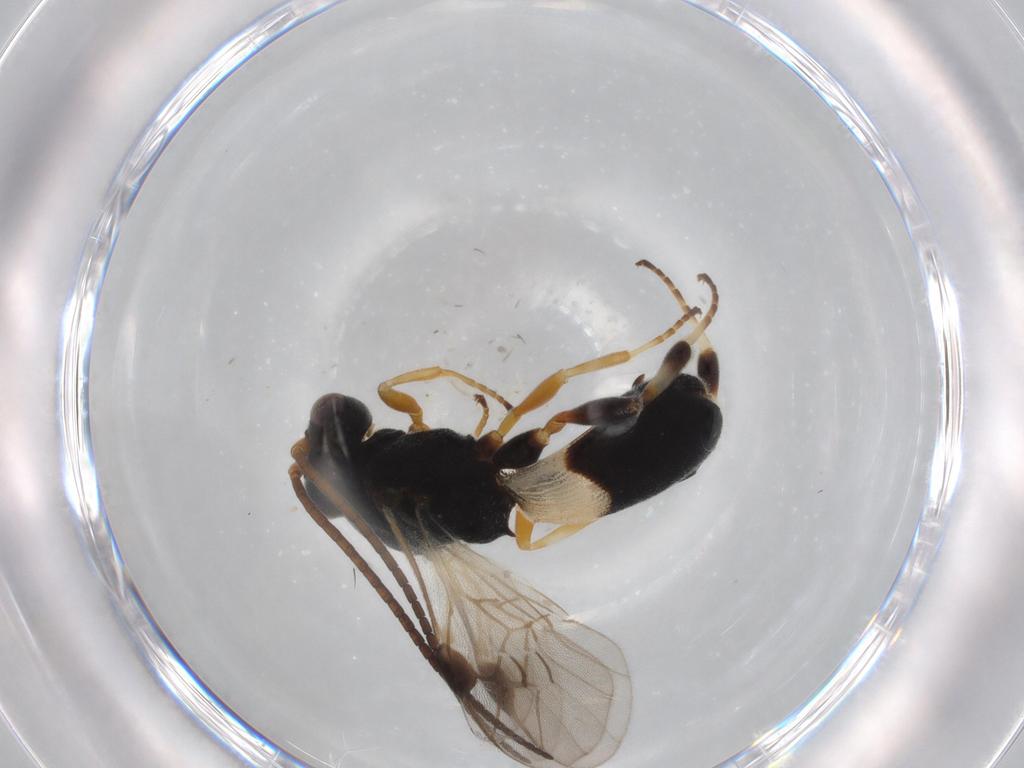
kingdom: Animalia
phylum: Arthropoda
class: Insecta
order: Hymenoptera
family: Braconidae
